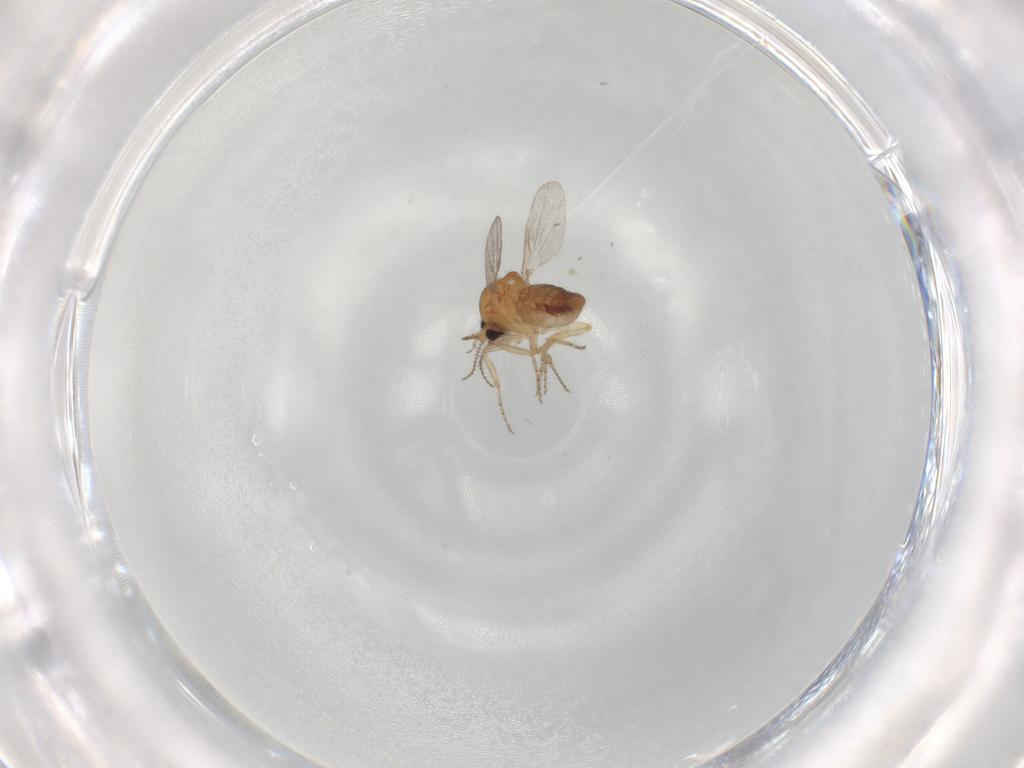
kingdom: Animalia
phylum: Arthropoda
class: Insecta
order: Diptera
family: Ceratopogonidae
